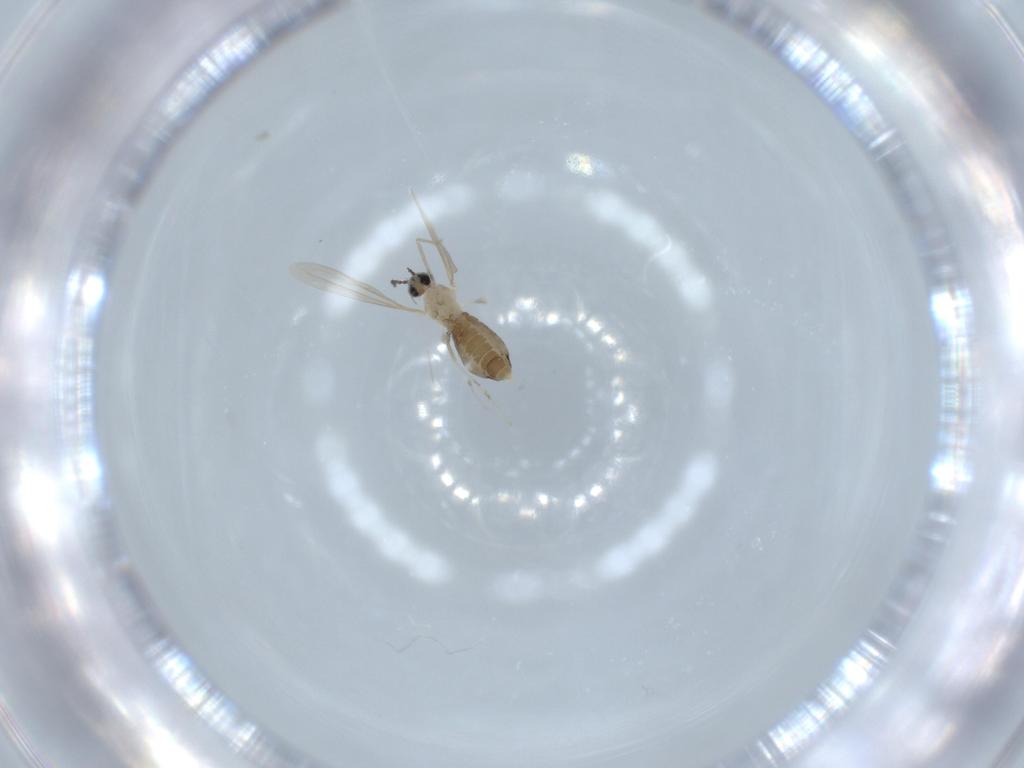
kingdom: Animalia
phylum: Arthropoda
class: Insecta
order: Diptera
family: Cecidomyiidae
